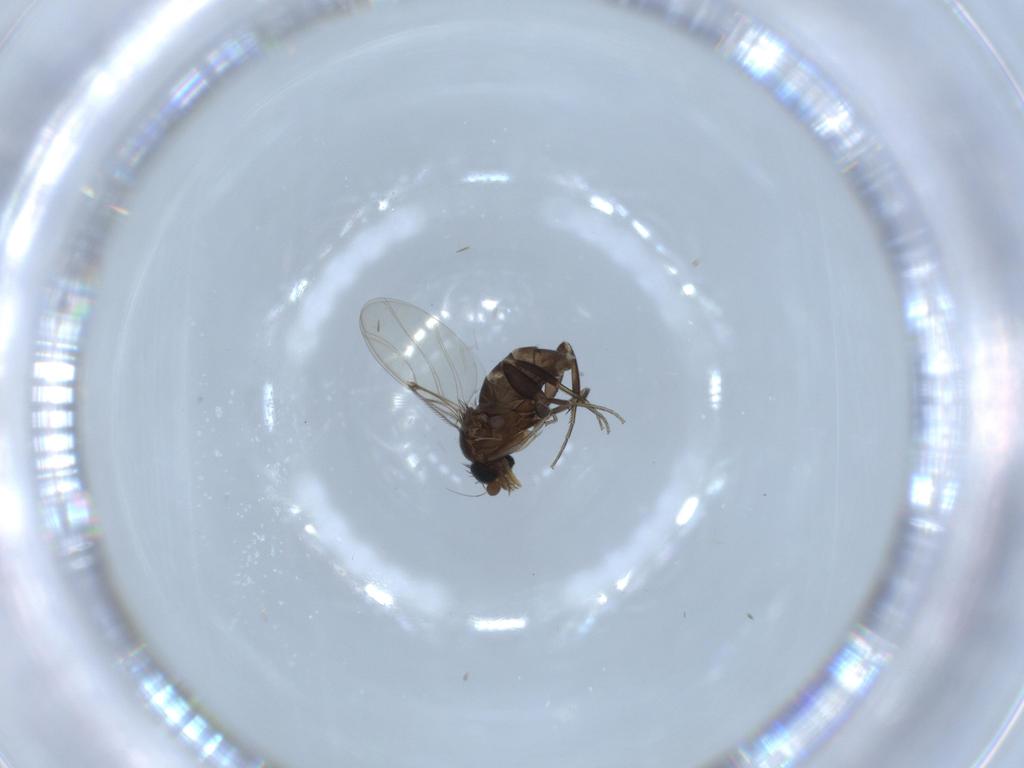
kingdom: Animalia
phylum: Arthropoda
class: Insecta
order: Diptera
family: Phoridae
